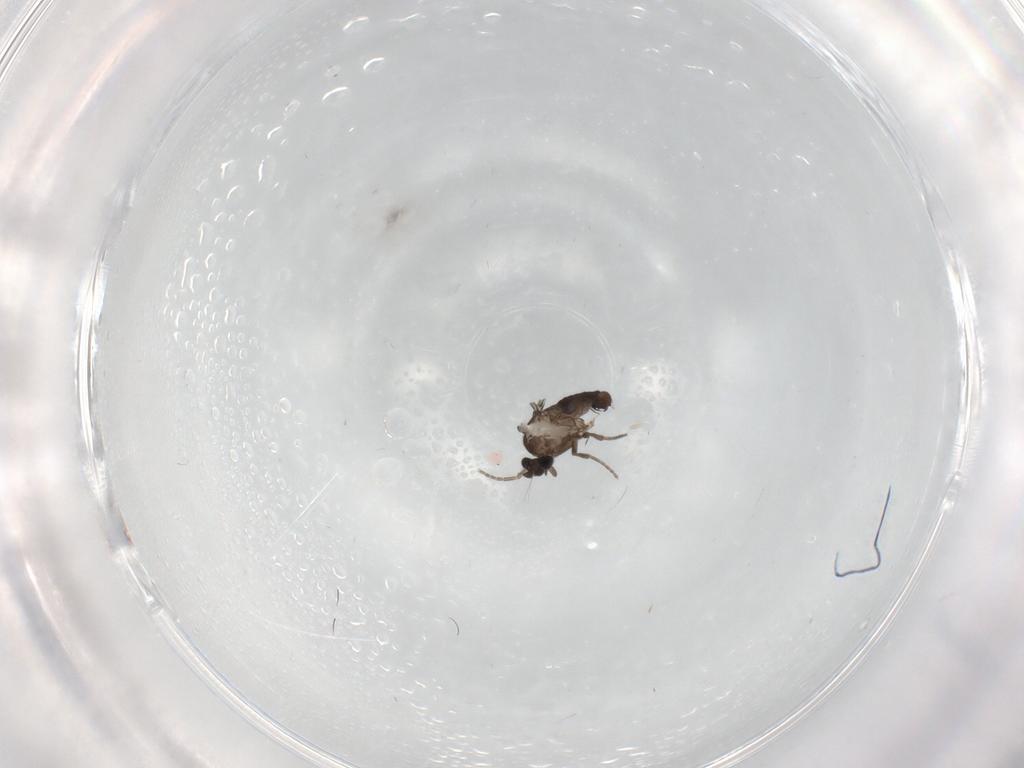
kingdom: Animalia
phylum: Arthropoda
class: Insecta
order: Diptera
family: Phoridae
